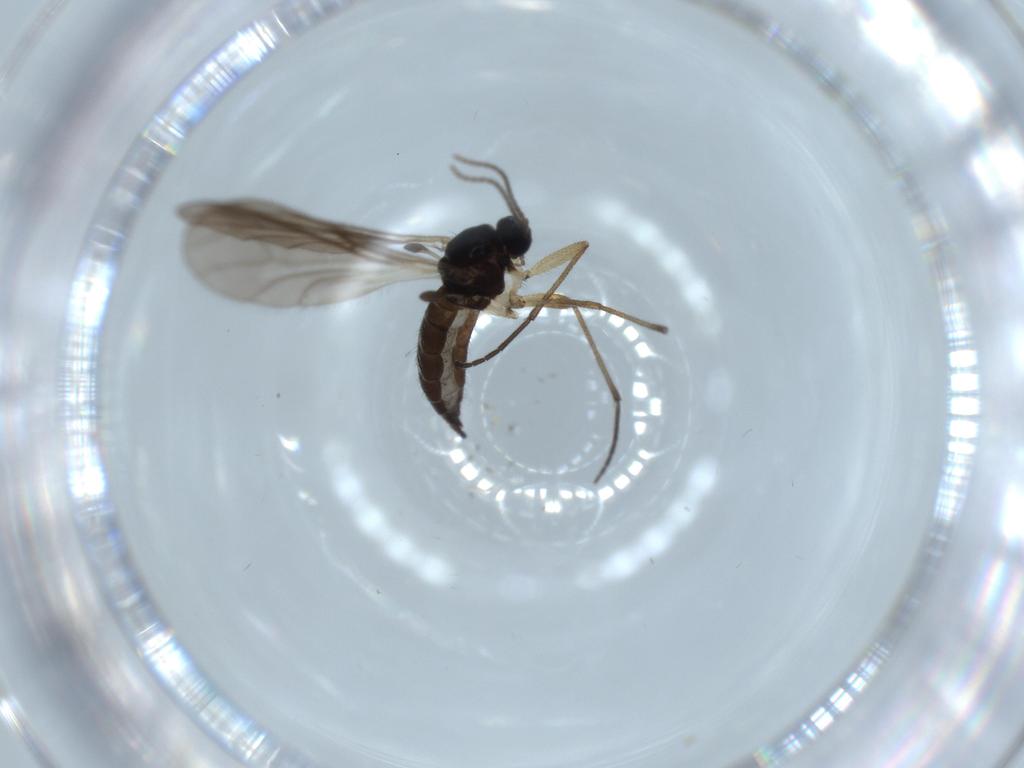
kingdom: Animalia
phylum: Arthropoda
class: Insecta
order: Diptera
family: Sciaridae
